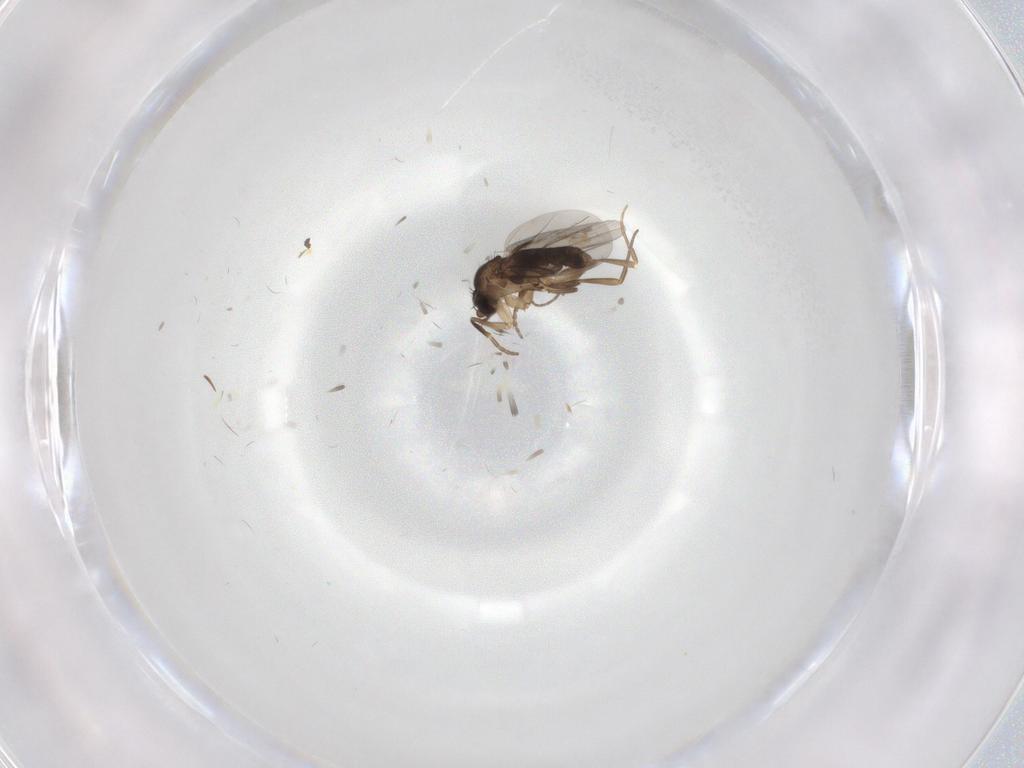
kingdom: Animalia
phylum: Arthropoda
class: Insecta
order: Diptera
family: Phoridae
